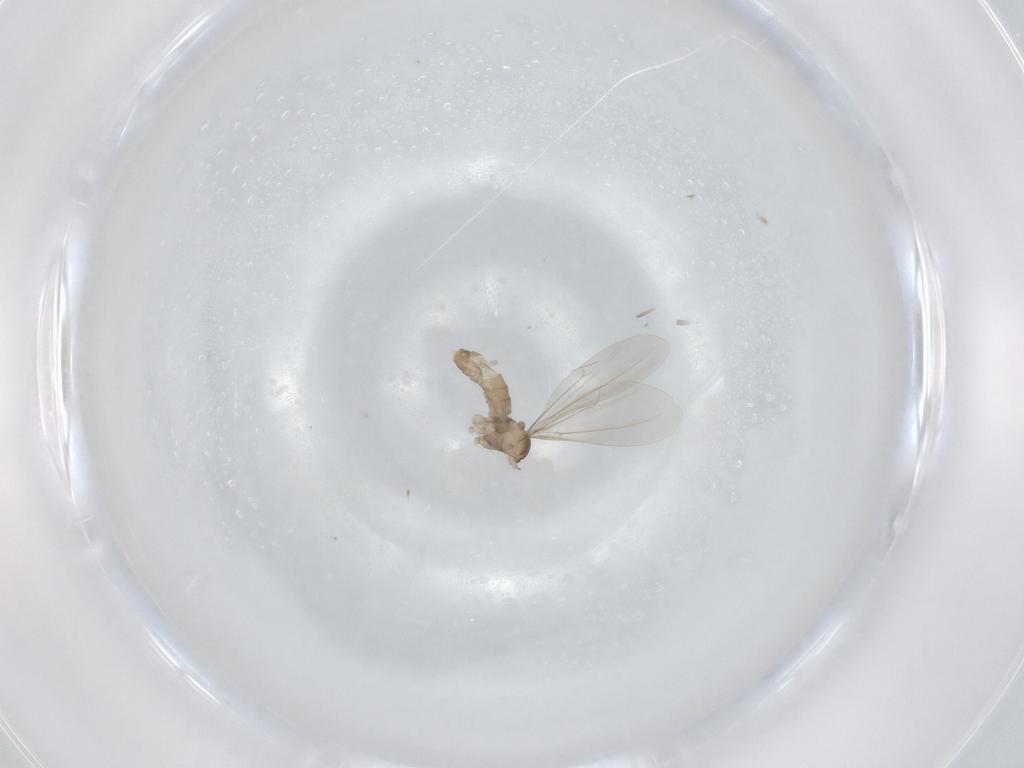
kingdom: Animalia
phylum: Arthropoda
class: Insecta
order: Diptera
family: Cecidomyiidae
